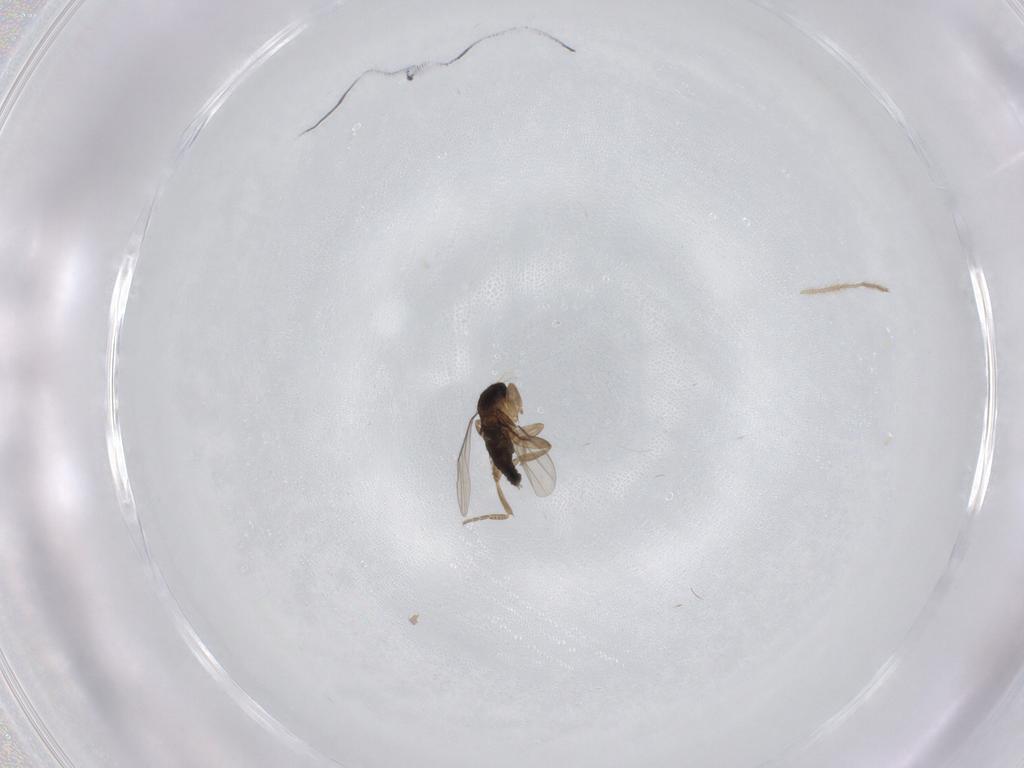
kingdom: Animalia
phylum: Arthropoda
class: Insecta
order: Diptera
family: Phoridae
